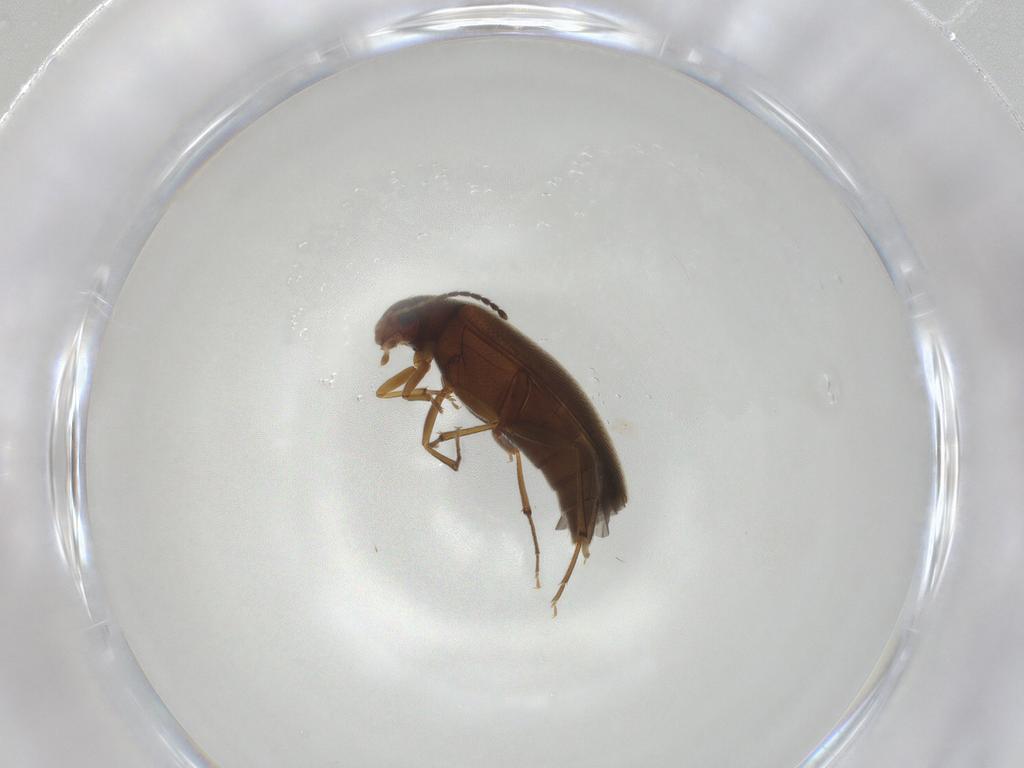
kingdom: Animalia
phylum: Arthropoda
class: Insecta
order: Coleoptera
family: Melandryidae
